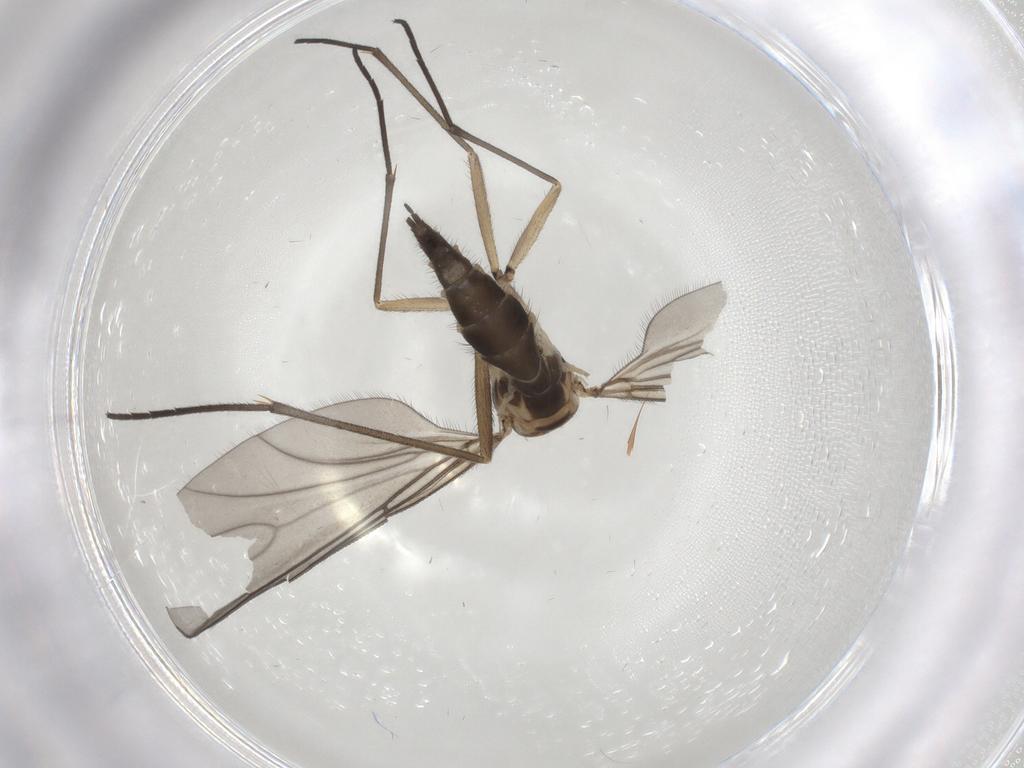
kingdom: Animalia
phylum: Arthropoda
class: Insecta
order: Diptera
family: Sciaridae
